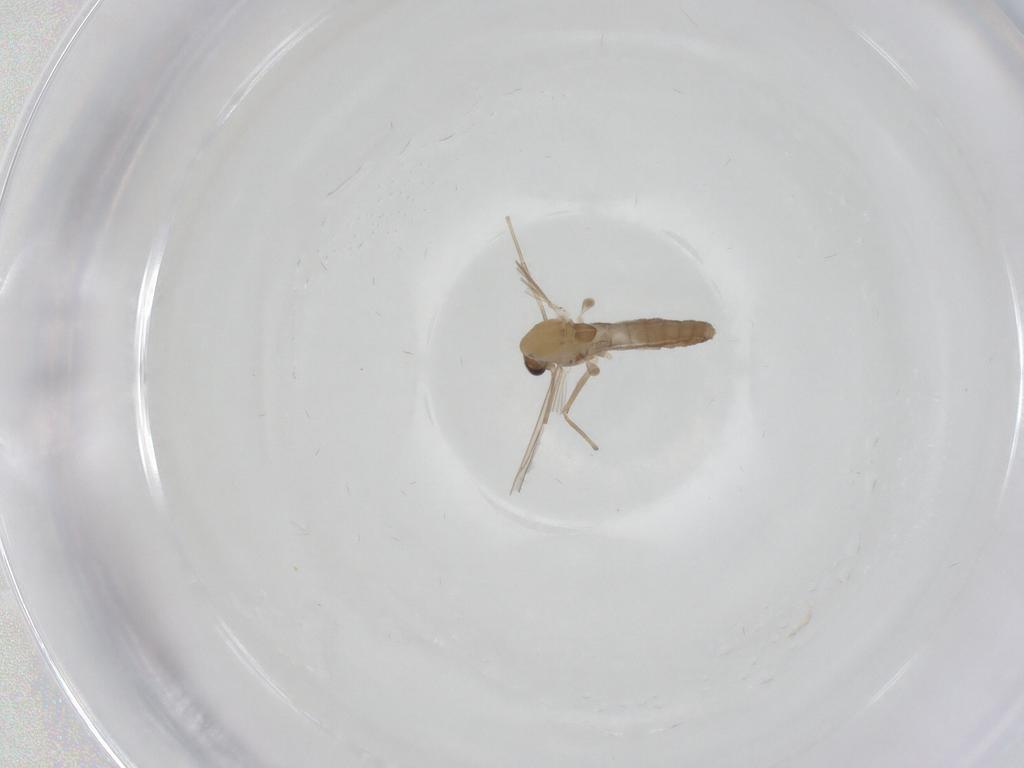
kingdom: Animalia
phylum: Arthropoda
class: Insecta
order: Diptera
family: Chironomidae
